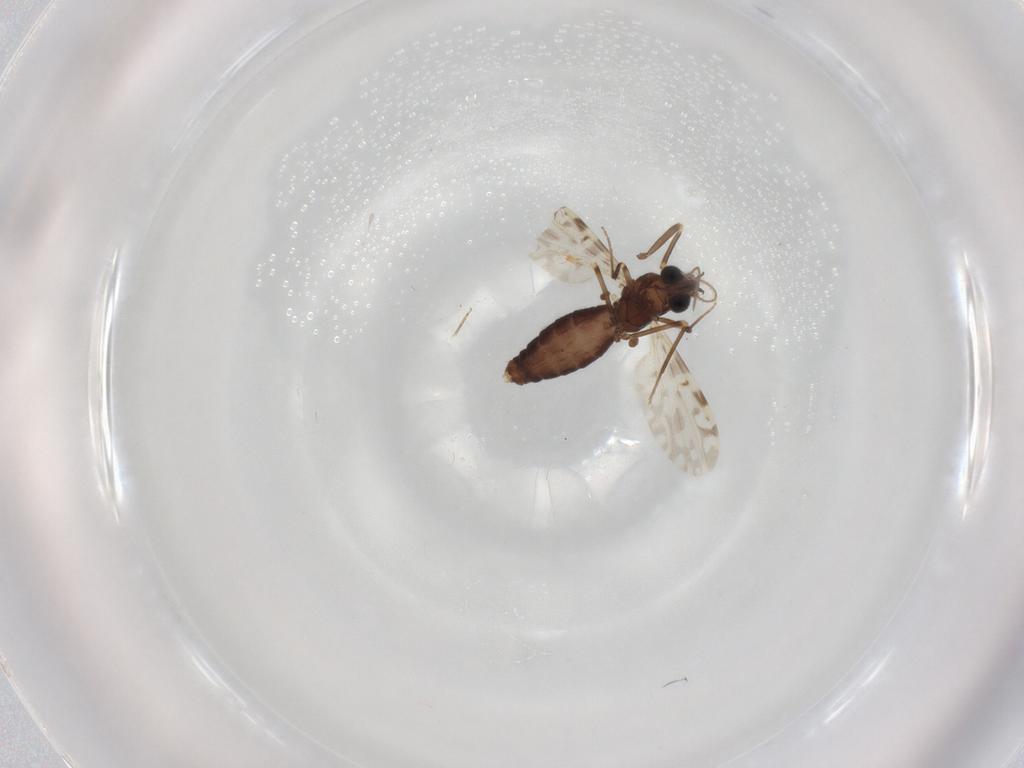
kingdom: Animalia
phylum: Arthropoda
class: Insecta
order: Diptera
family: Ceratopogonidae
